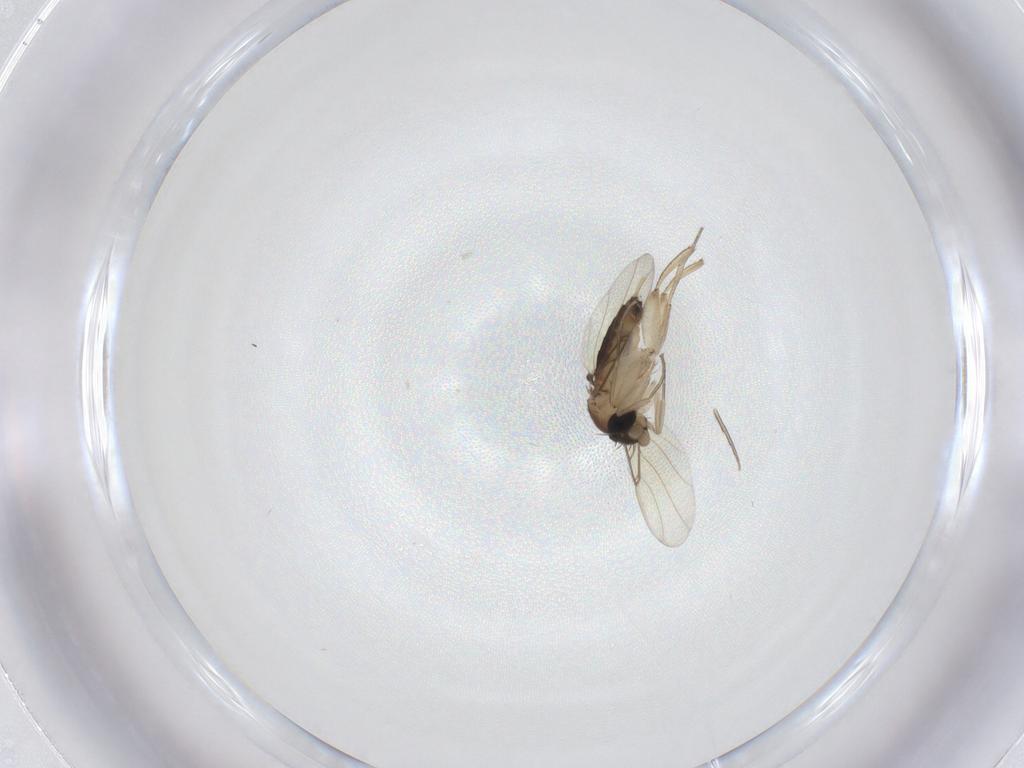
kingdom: Animalia
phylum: Arthropoda
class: Insecta
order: Diptera
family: Phoridae
